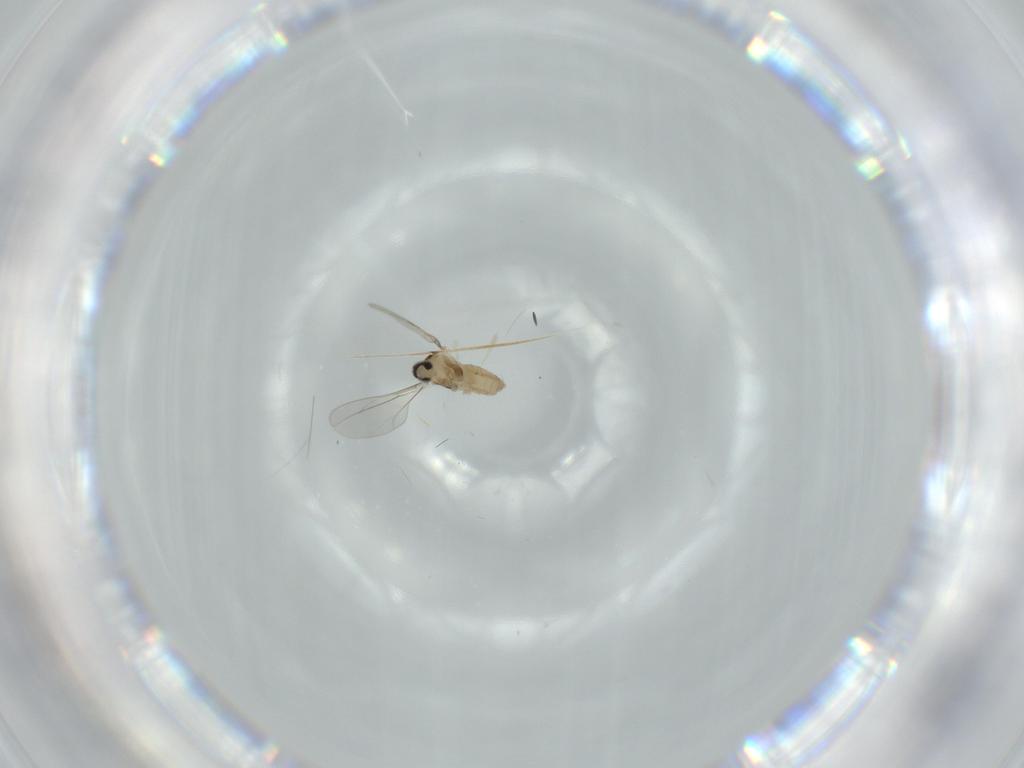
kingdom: Animalia
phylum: Arthropoda
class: Insecta
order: Diptera
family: Cecidomyiidae
